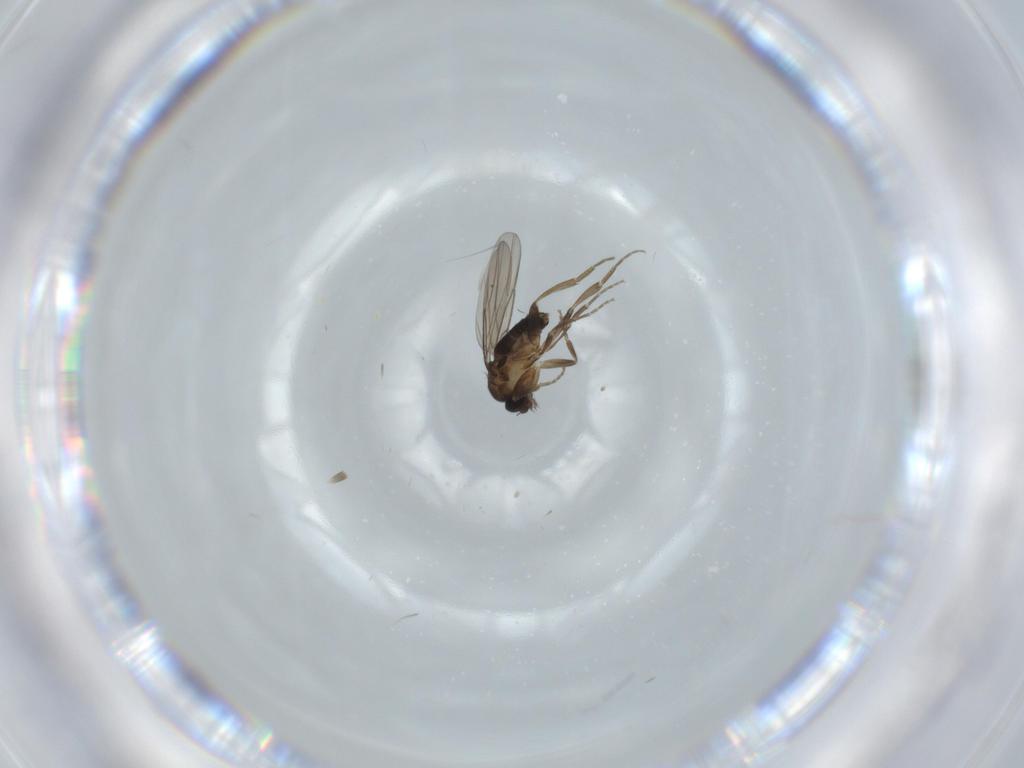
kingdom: Animalia
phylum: Arthropoda
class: Insecta
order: Diptera
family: Phoridae
